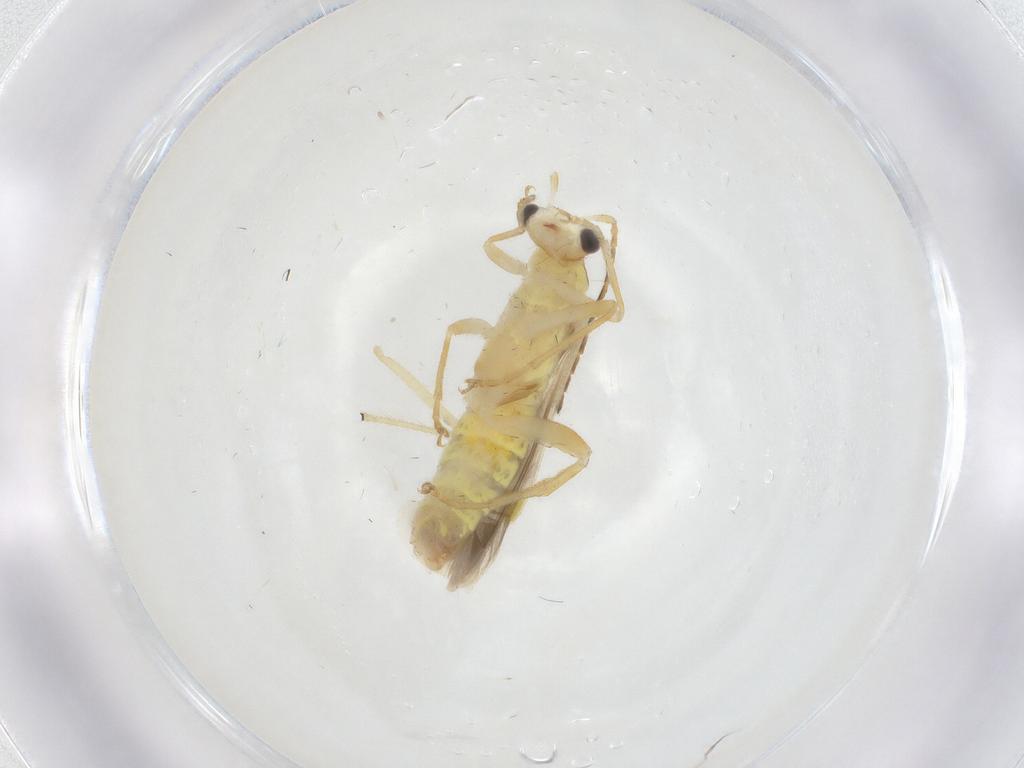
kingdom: Animalia
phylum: Arthropoda
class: Insecta
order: Coleoptera
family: Cantharidae
